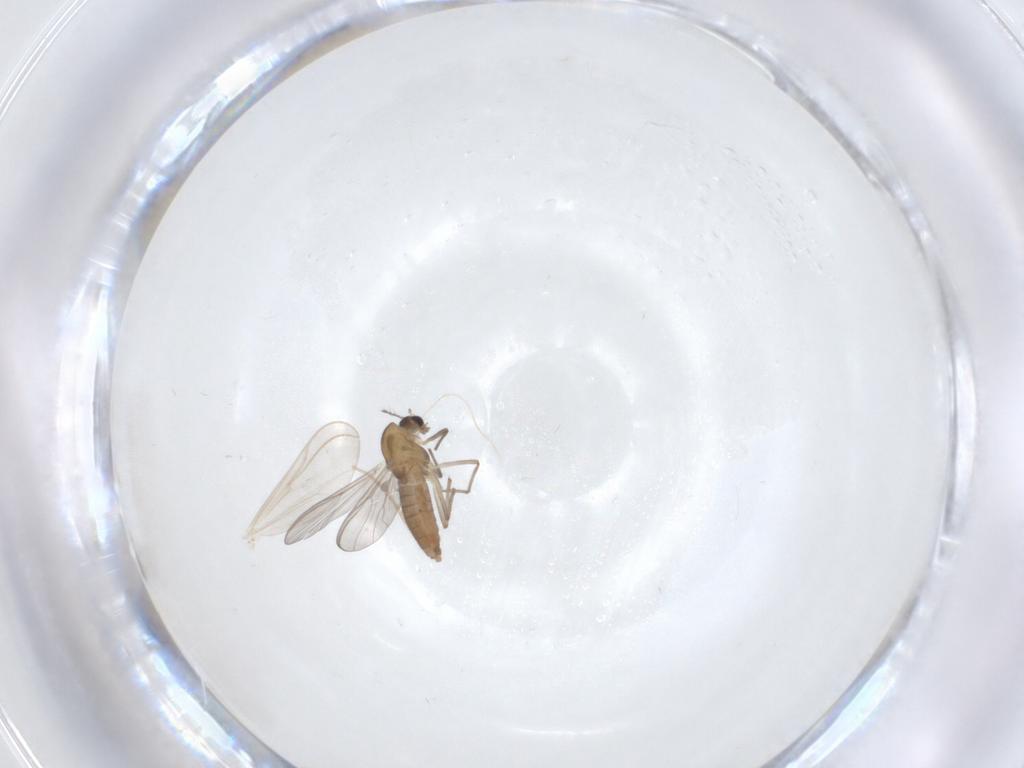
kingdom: Animalia
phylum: Arthropoda
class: Insecta
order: Diptera
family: Chironomidae
